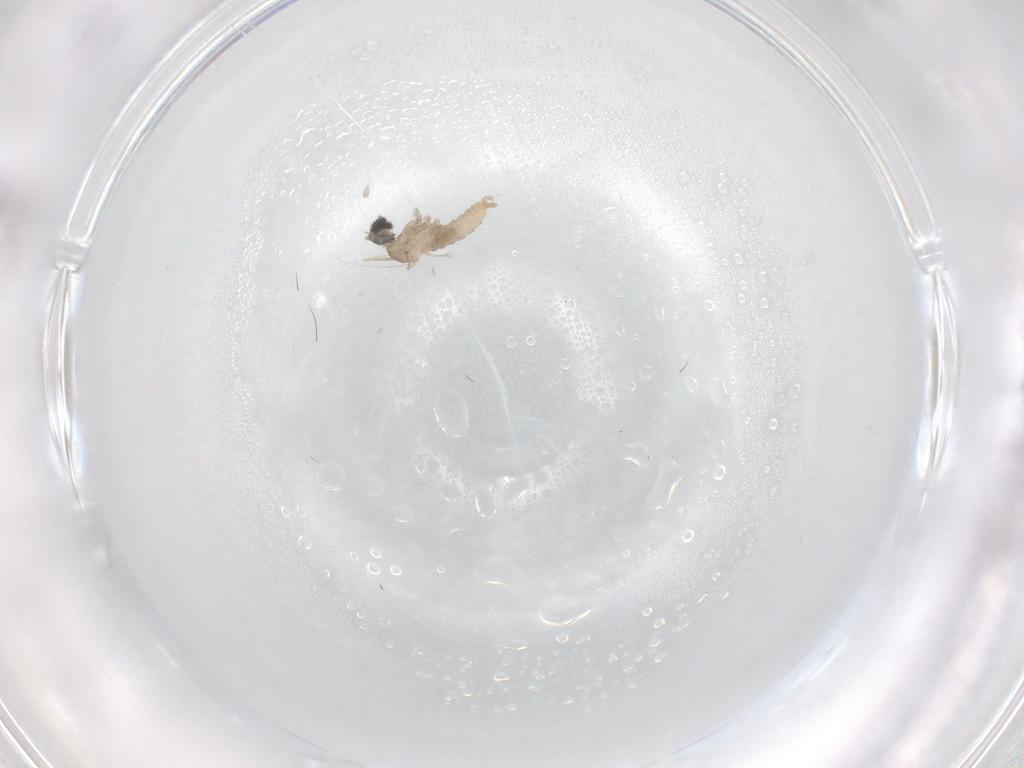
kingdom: Animalia
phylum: Arthropoda
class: Insecta
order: Diptera
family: Cecidomyiidae
